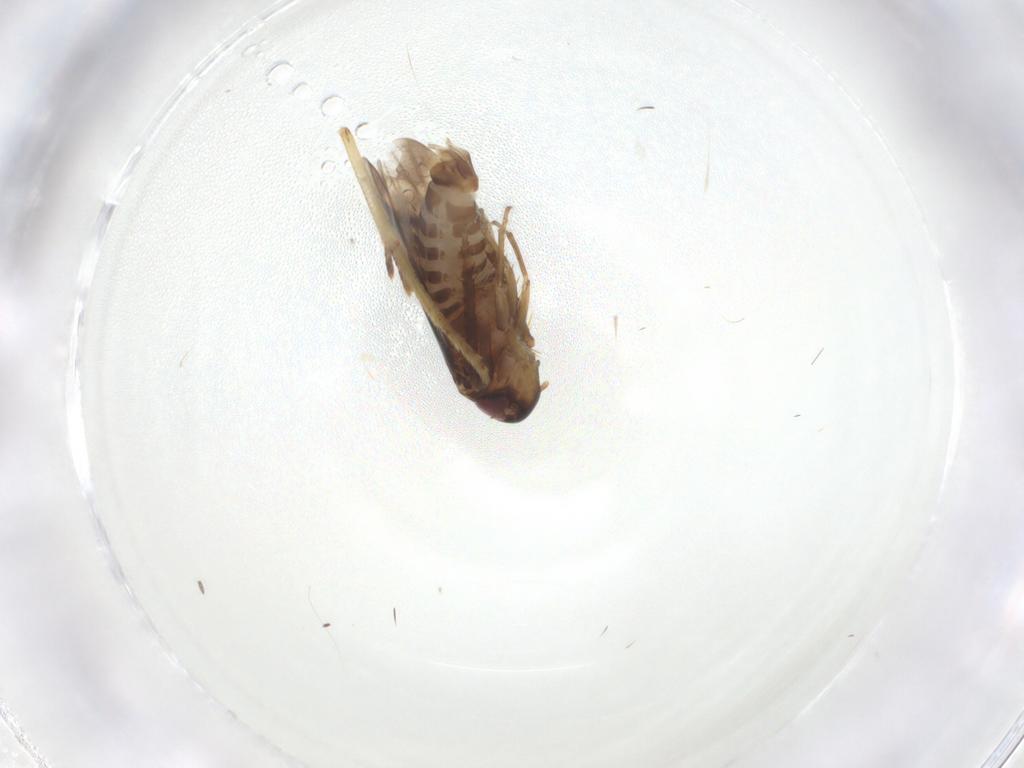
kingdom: Animalia
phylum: Arthropoda
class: Insecta
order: Hemiptera
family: Cicadellidae
